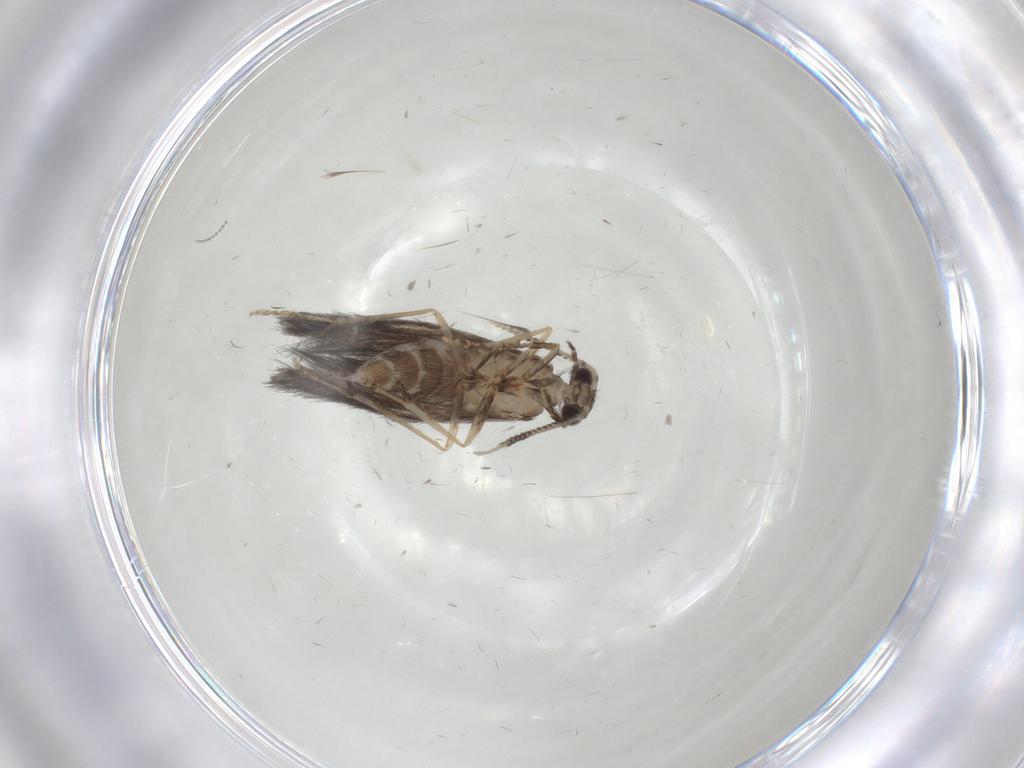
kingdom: Animalia
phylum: Arthropoda
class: Insecta
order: Trichoptera
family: Hydroptilidae
